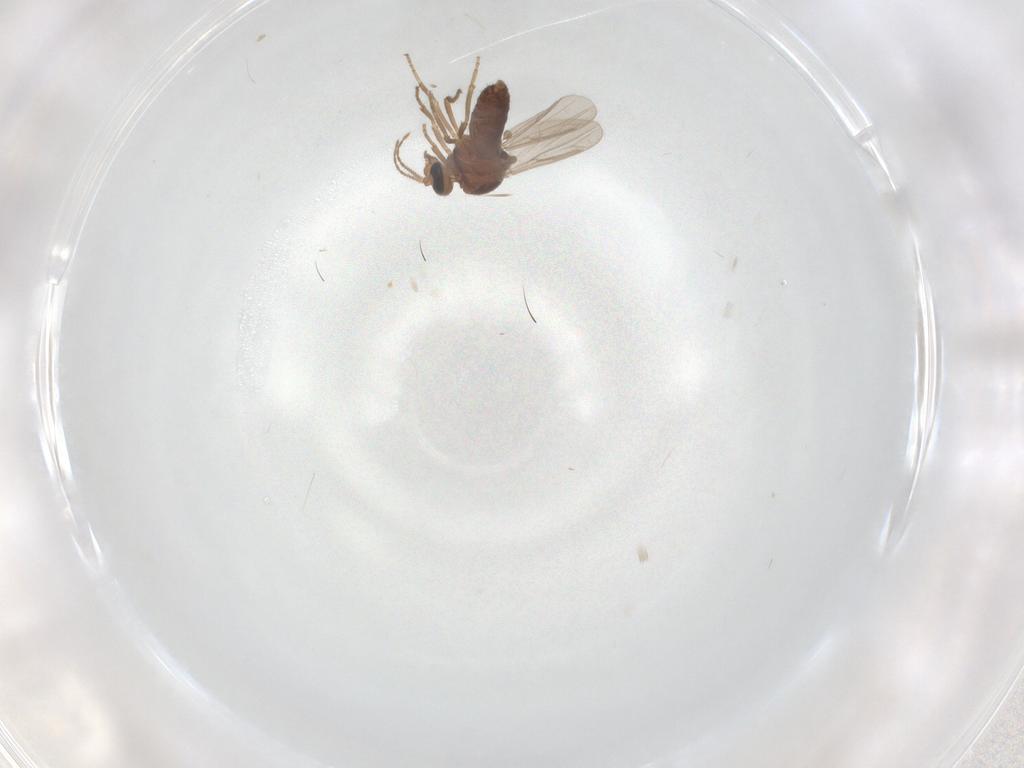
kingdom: Animalia
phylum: Arthropoda
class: Insecta
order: Diptera
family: Ceratopogonidae
